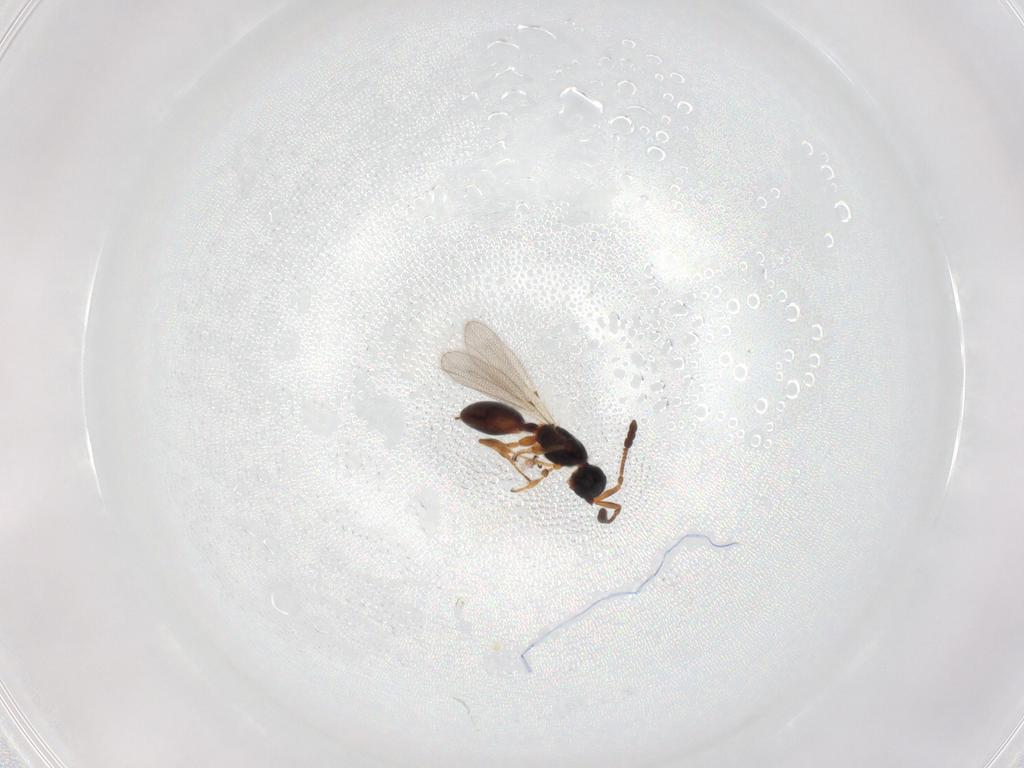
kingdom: Animalia
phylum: Arthropoda
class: Insecta
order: Hymenoptera
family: Diapriidae
